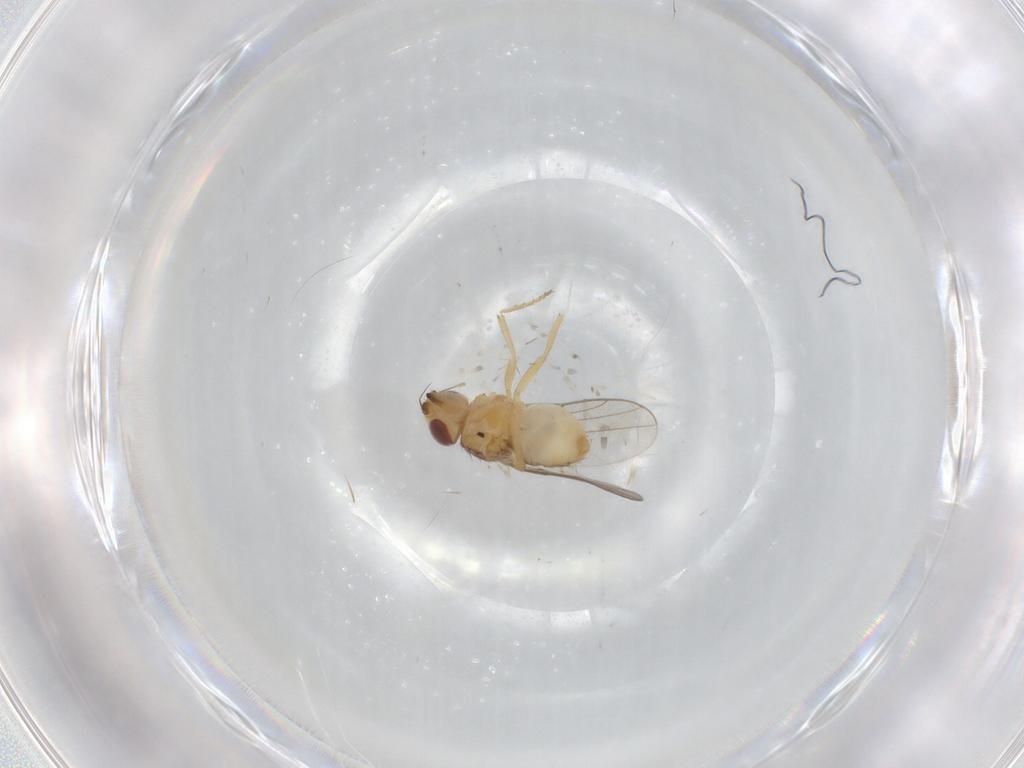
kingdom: Animalia
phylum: Arthropoda
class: Insecta
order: Diptera
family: Chloropidae
